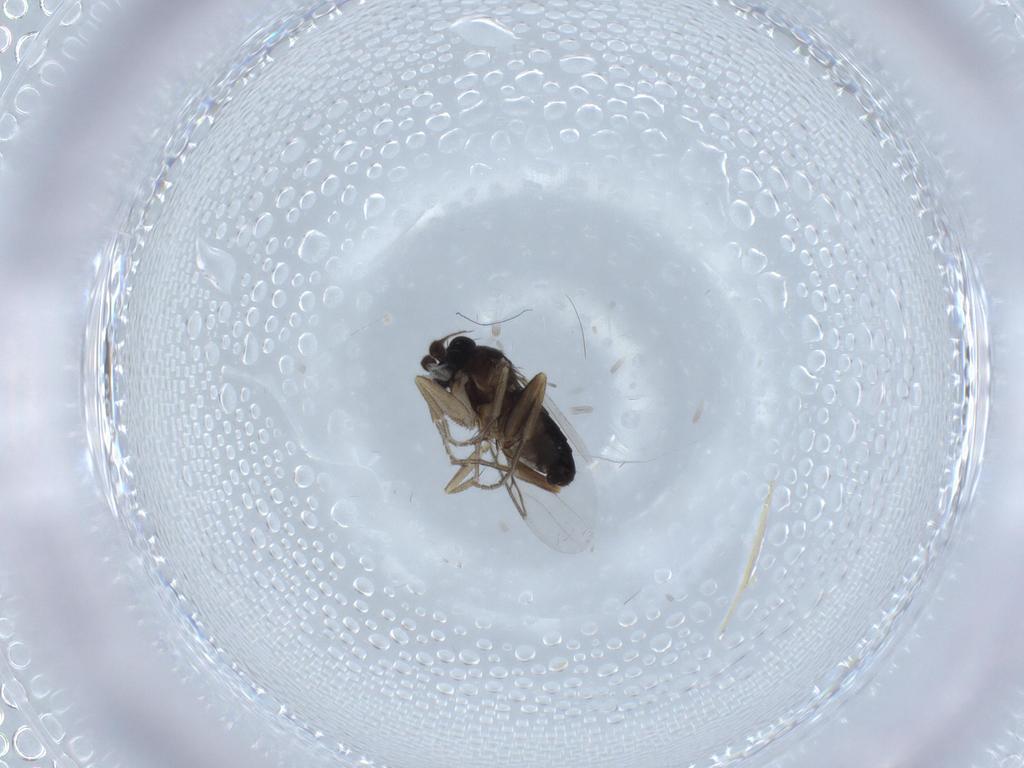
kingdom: Animalia
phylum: Arthropoda
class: Insecta
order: Diptera
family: Phoridae
